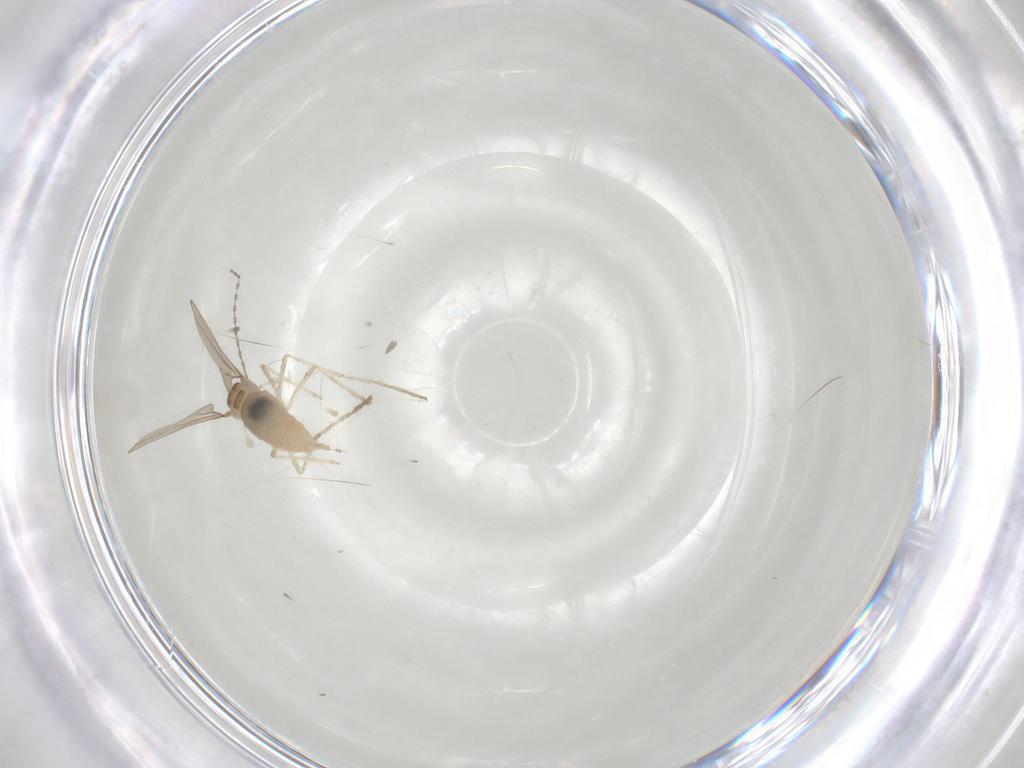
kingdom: Animalia
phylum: Arthropoda
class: Insecta
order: Diptera
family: Cecidomyiidae
